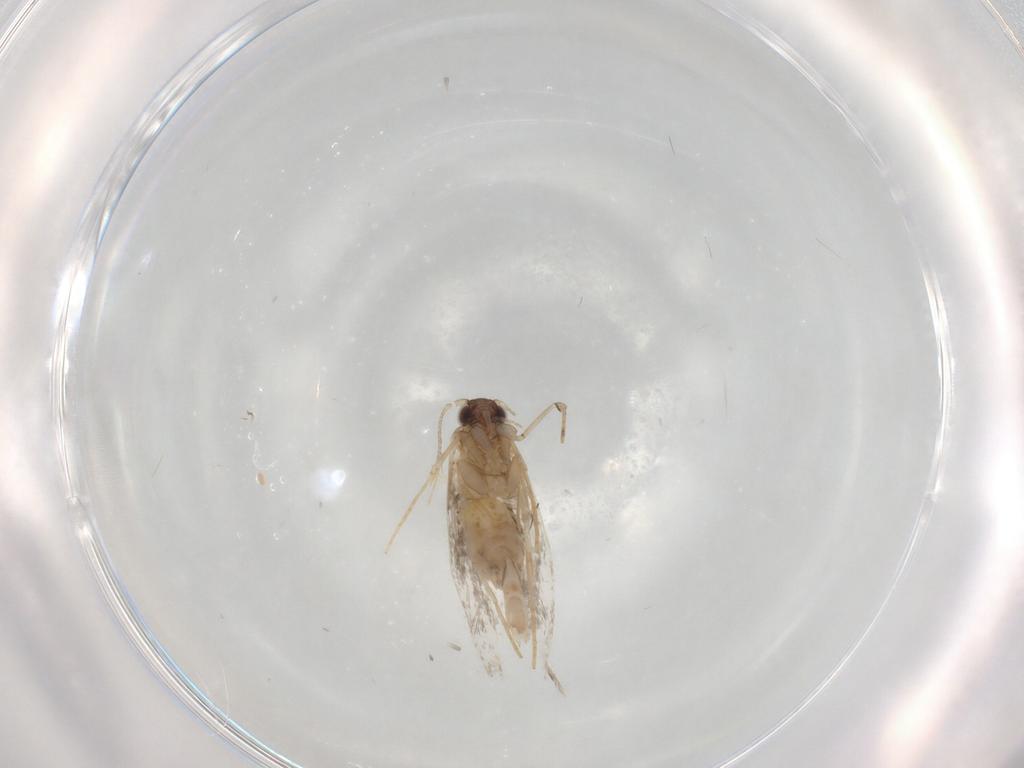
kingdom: Animalia
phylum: Arthropoda
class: Insecta
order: Lepidoptera
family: Tineidae
